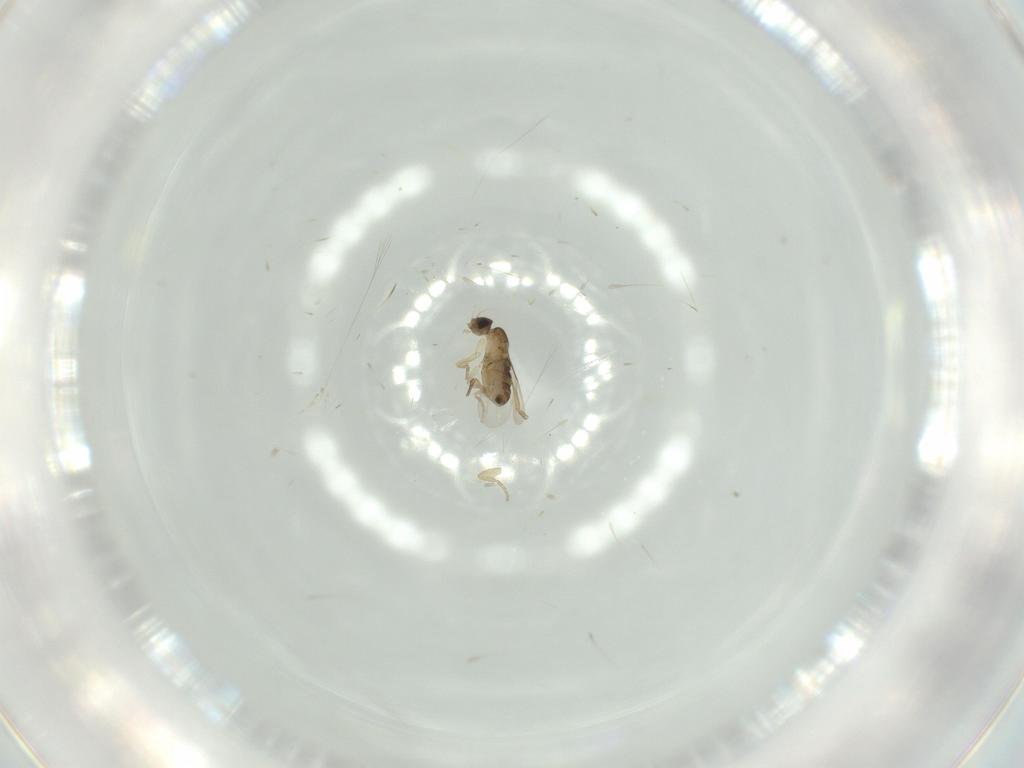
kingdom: Animalia
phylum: Arthropoda
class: Insecta
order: Diptera
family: Phoridae
